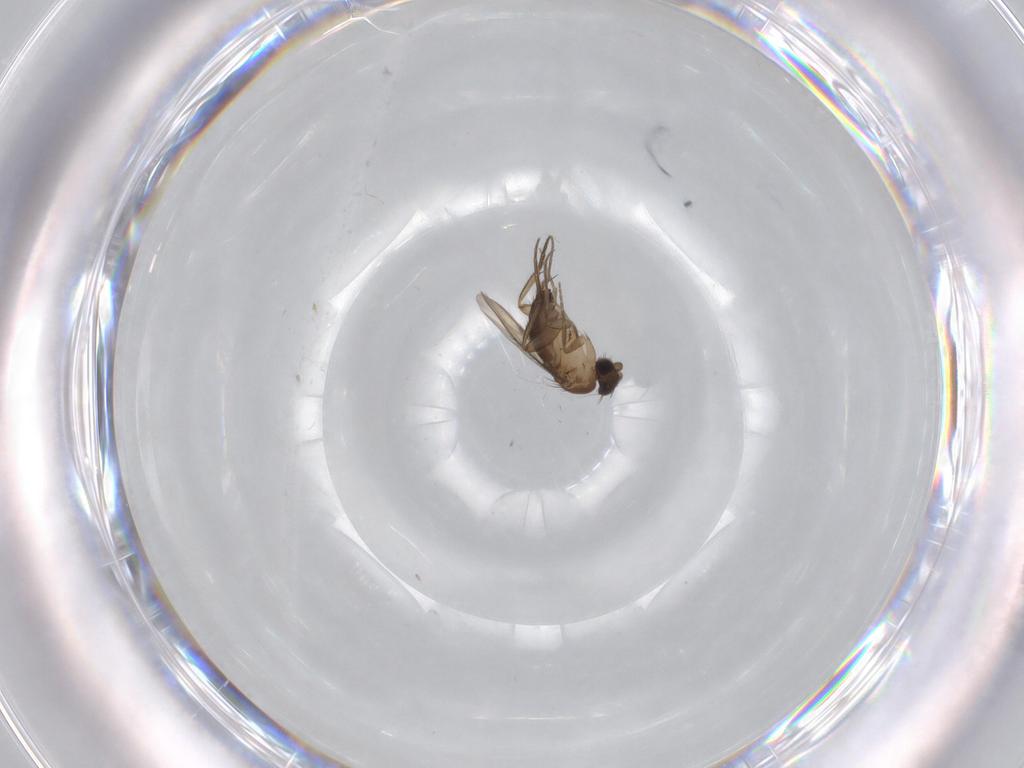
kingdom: Animalia
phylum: Arthropoda
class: Insecta
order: Diptera
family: Phoridae
